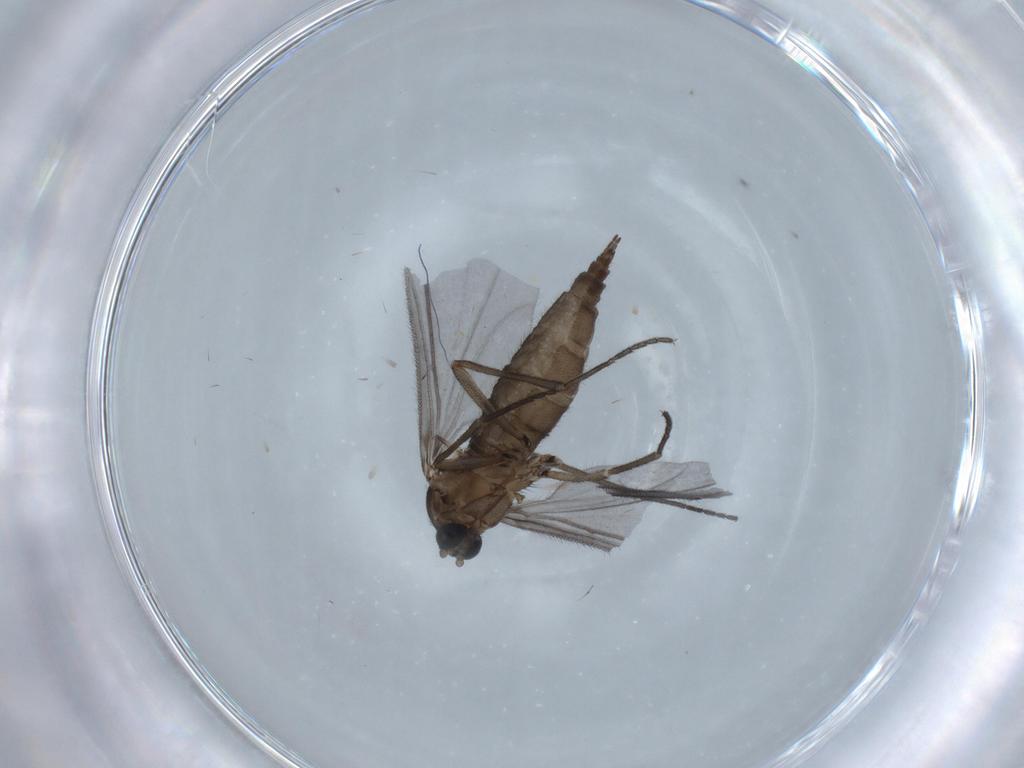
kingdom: Animalia
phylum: Arthropoda
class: Insecta
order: Diptera
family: Sciaridae
